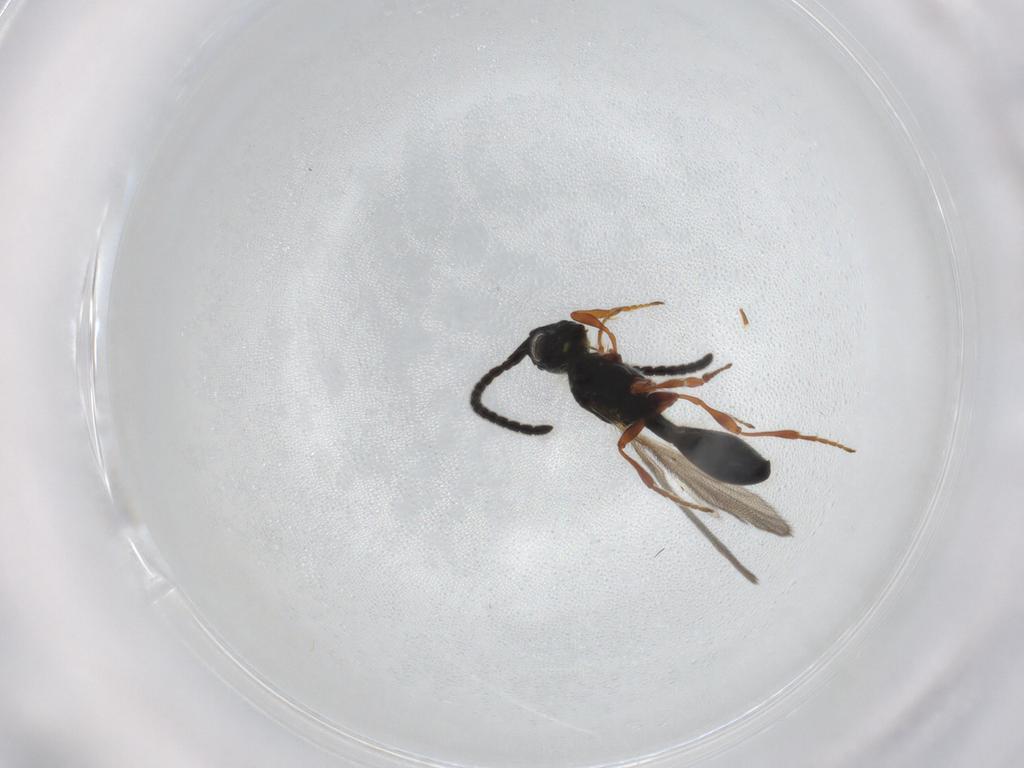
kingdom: Animalia
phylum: Arthropoda
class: Insecta
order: Hymenoptera
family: Diapriidae
